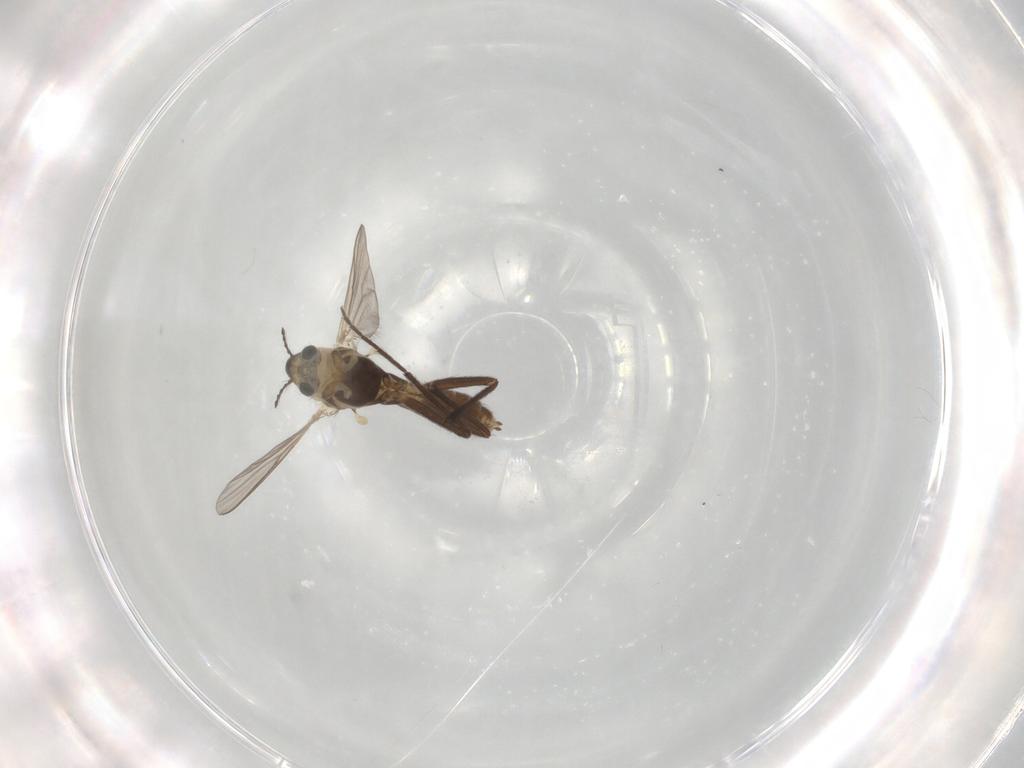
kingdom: Animalia
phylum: Arthropoda
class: Insecta
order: Diptera
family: Chironomidae
